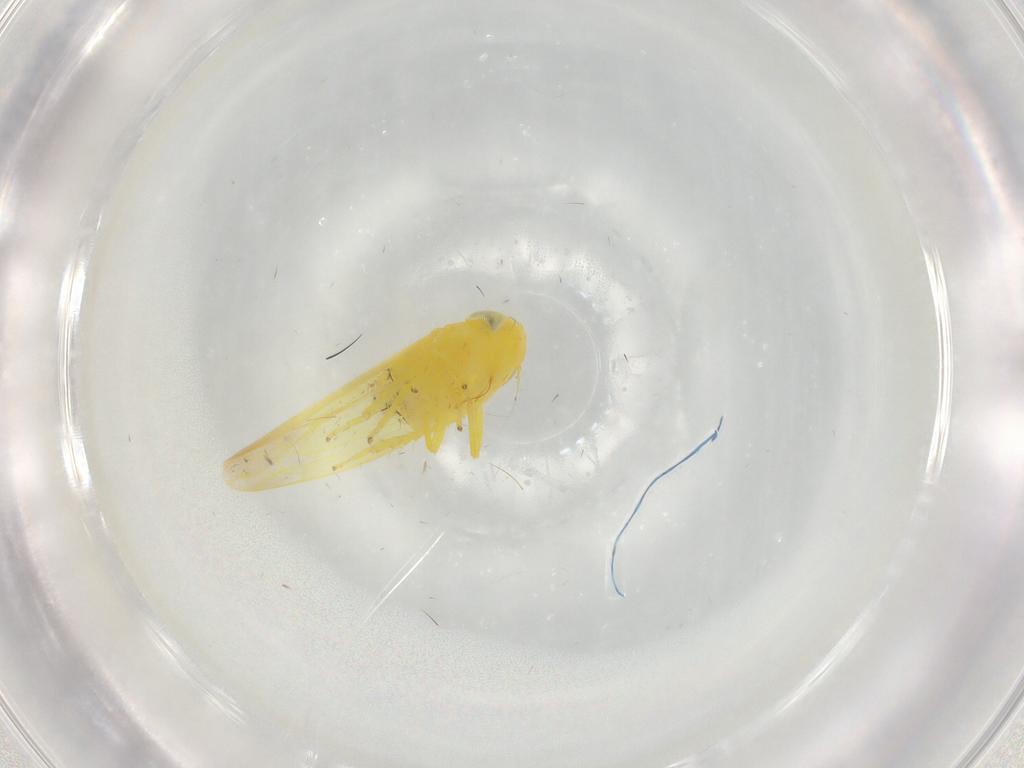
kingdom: Animalia
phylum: Arthropoda
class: Insecta
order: Hemiptera
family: Cicadellidae
